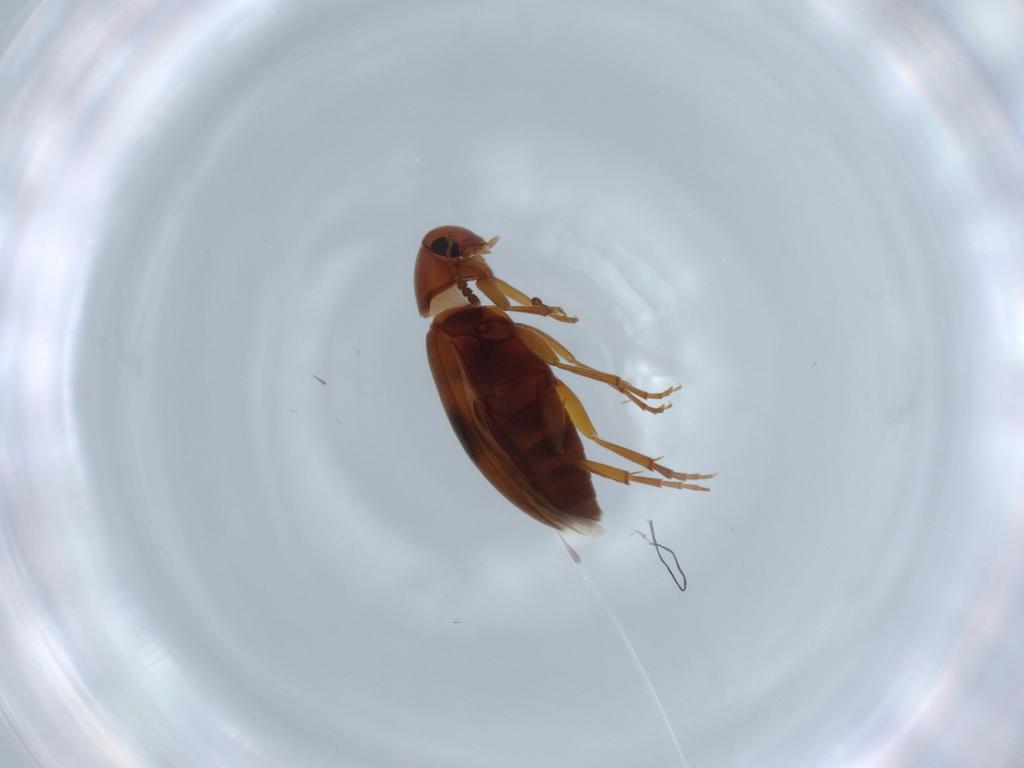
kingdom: Animalia
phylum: Arthropoda
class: Insecta
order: Coleoptera
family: Scraptiidae
